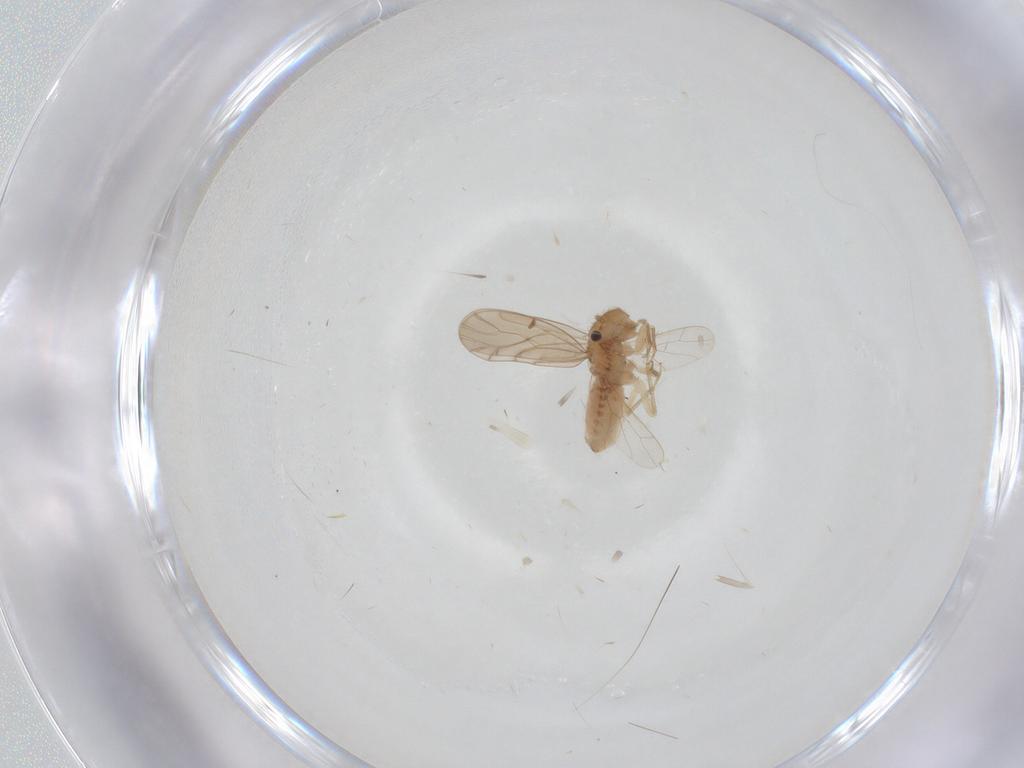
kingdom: Animalia
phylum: Arthropoda
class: Insecta
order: Psocodea
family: Ectopsocidae
